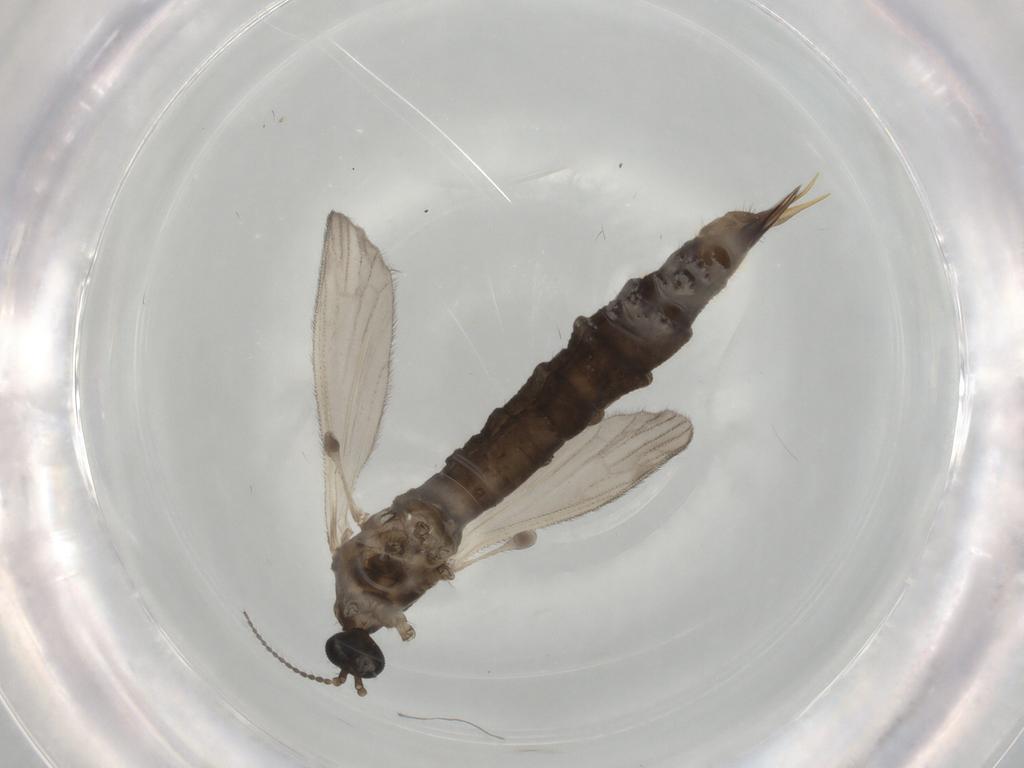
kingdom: Animalia
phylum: Arthropoda
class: Insecta
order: Diptera
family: Limoniidae
